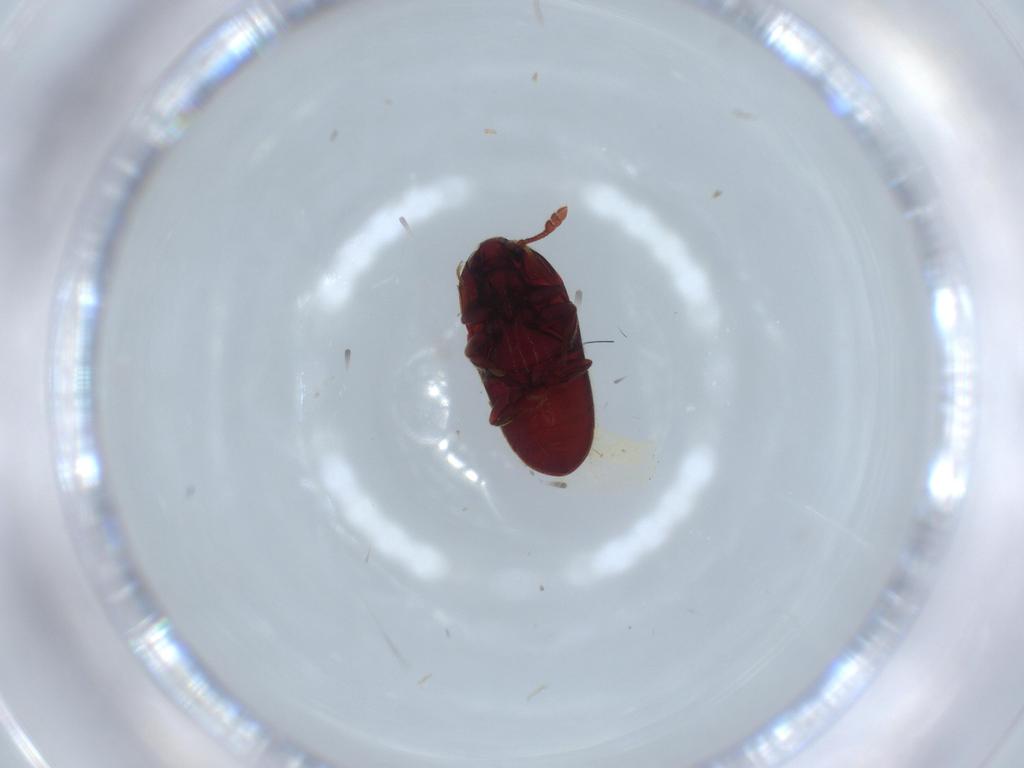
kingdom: Animalia
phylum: Arthropoda
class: Insecta
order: Coleoptera
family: Throscidae
